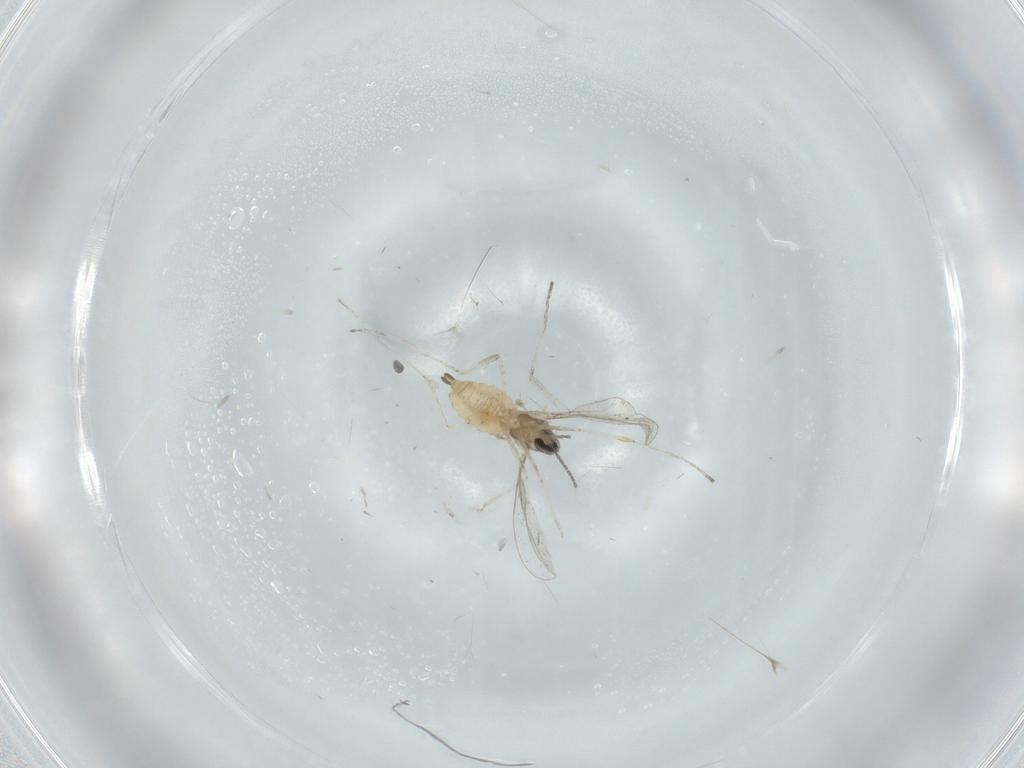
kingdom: Animalia
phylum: Arthropoda
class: Insecta
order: Diptera
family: Cecidomyiidae
